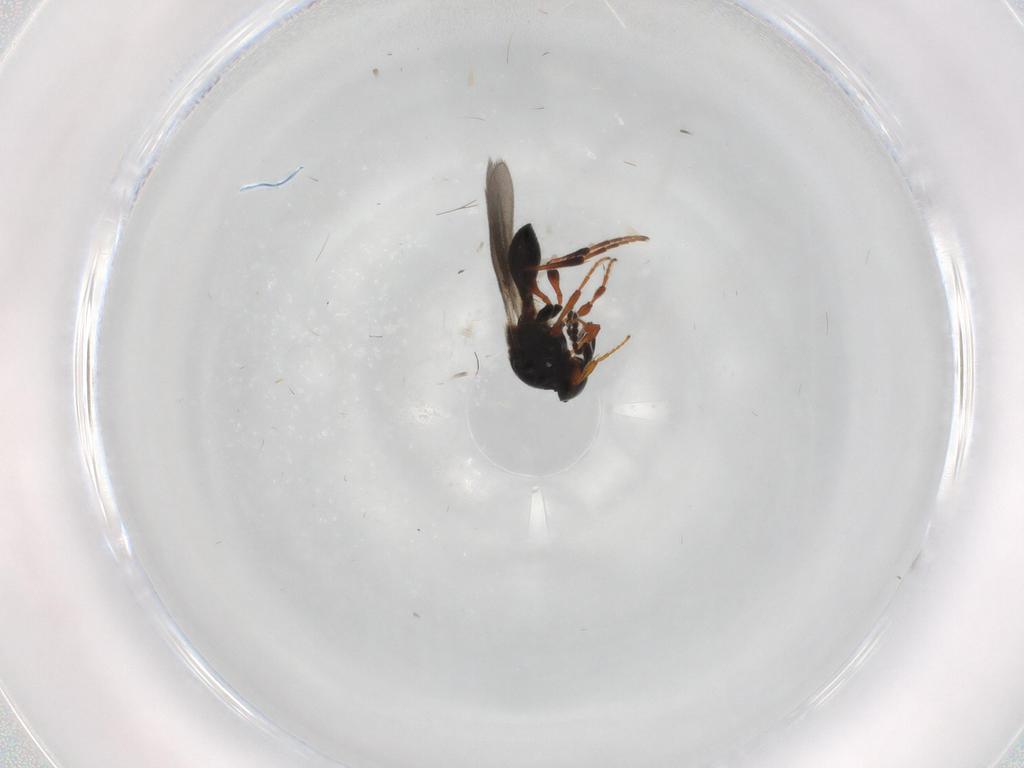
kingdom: Animalia
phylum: Arthropoda
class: Insecta
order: Hymenoptera
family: Platygastridae
